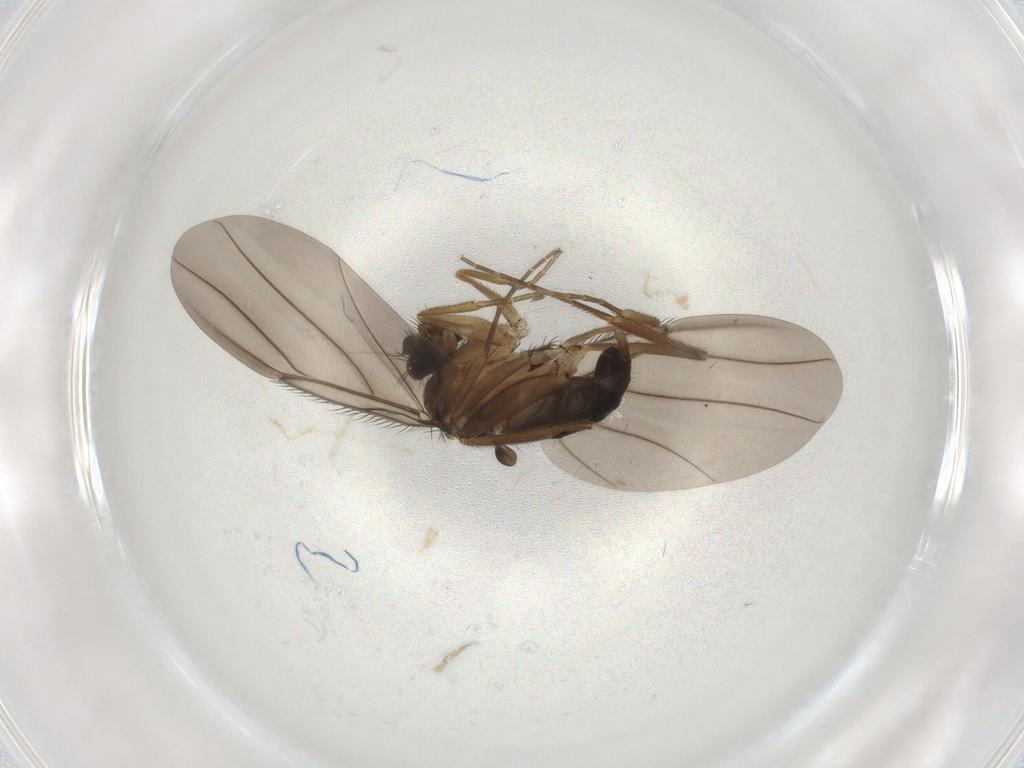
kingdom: Animalia
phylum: Arthropoda
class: Insecta
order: Diptera
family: Phoridae
